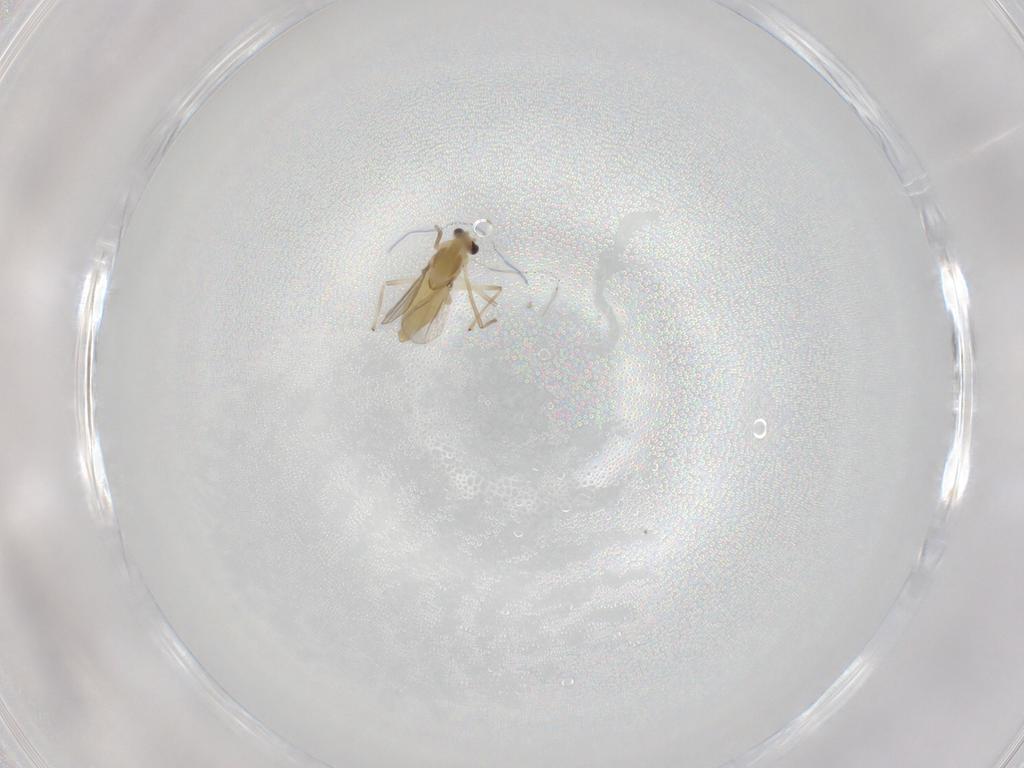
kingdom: Animalia
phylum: Arthropoda
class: Insecta
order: Diptera
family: Chironomidae
